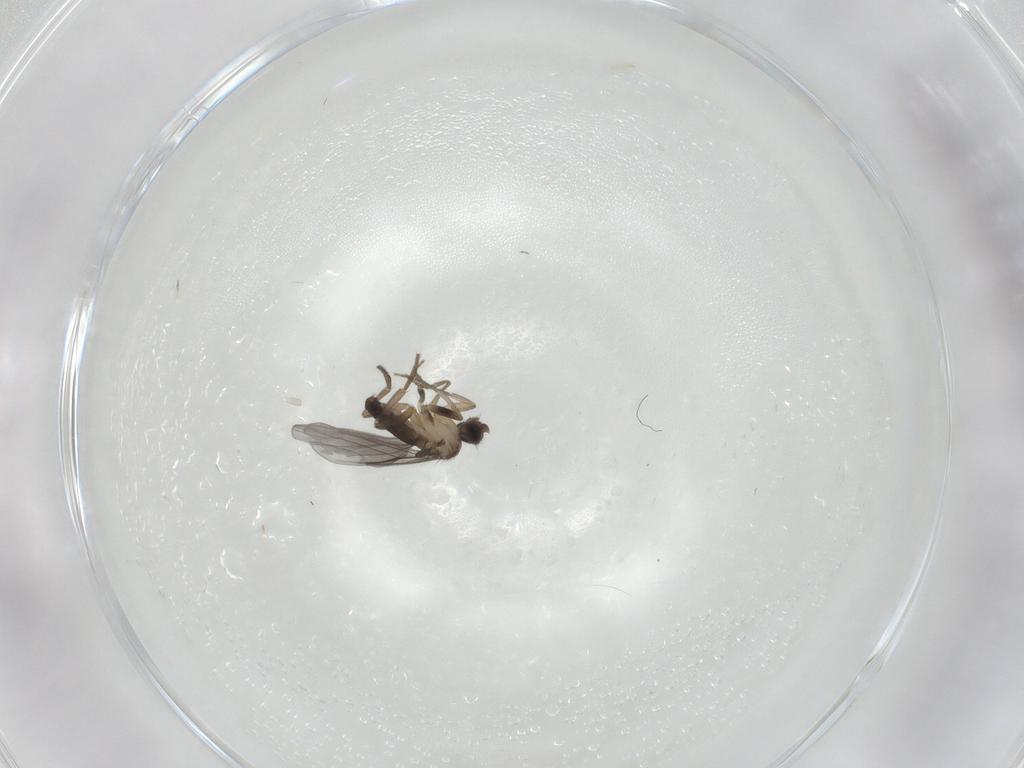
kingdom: Animalia
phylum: Arthropoda
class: Insecta
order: Diptera
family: Phoridae
